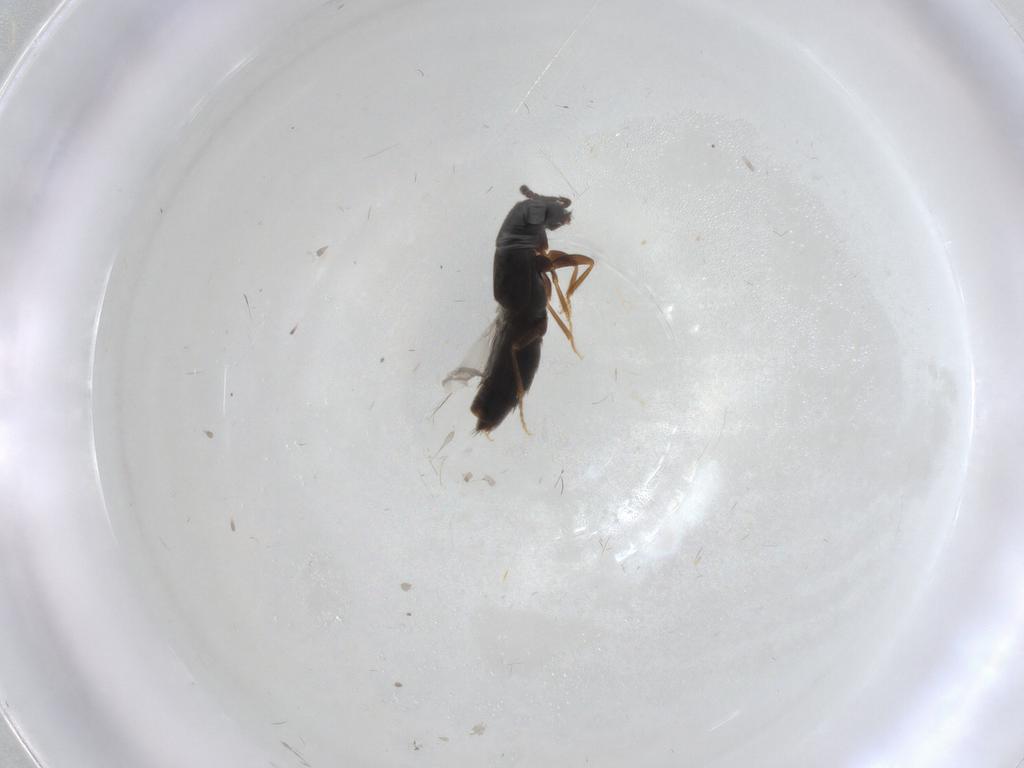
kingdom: Animalia
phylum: Arthropoda
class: Insecta
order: Coleoptera
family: Staphylinidae
